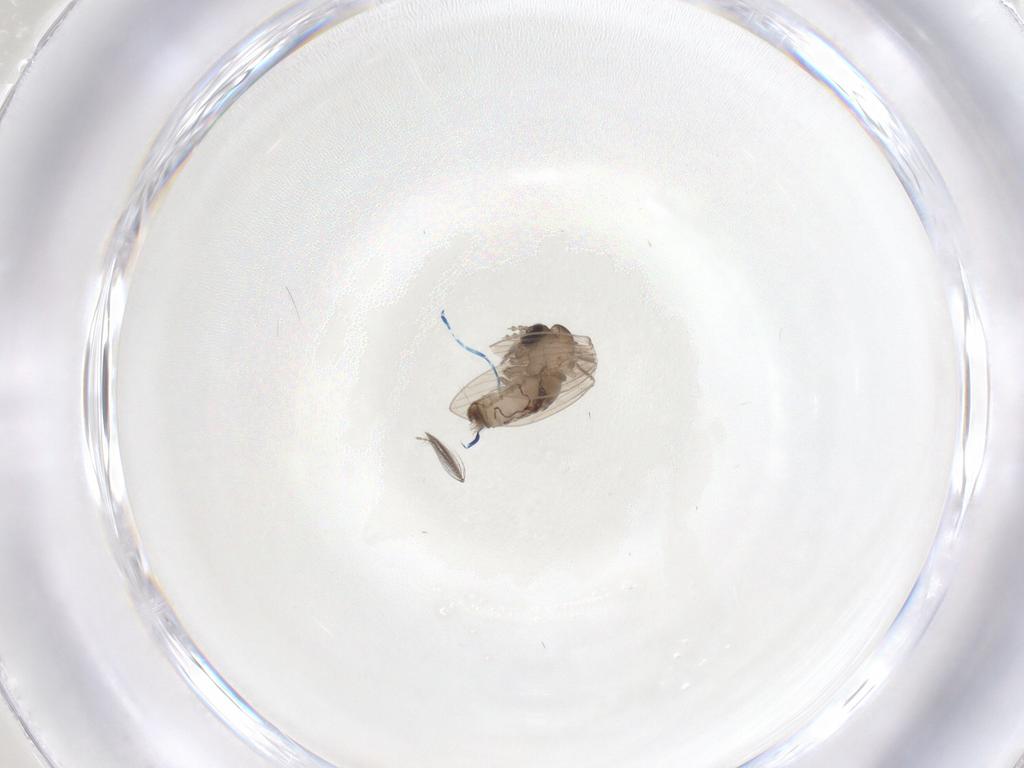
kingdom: Animalia
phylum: Arthropoda
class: Insecta
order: Diptera
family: Psychodidae
